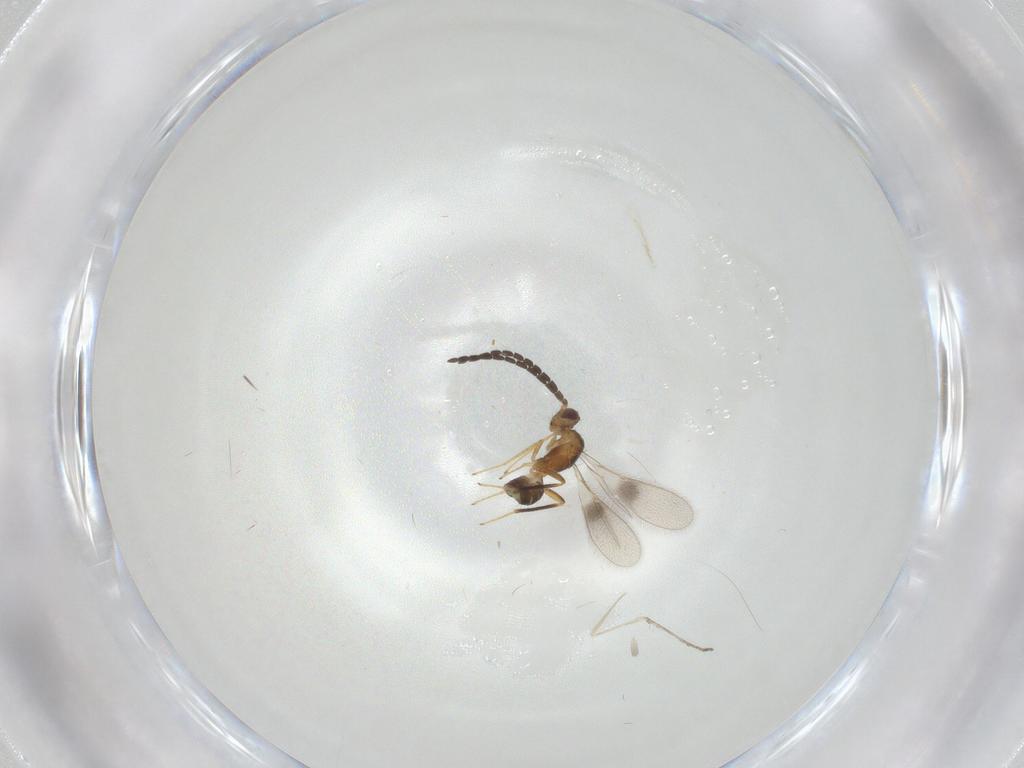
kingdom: Animalia
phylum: Arthropoda
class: Insecta
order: Hymenoptera
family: Mymaridae
